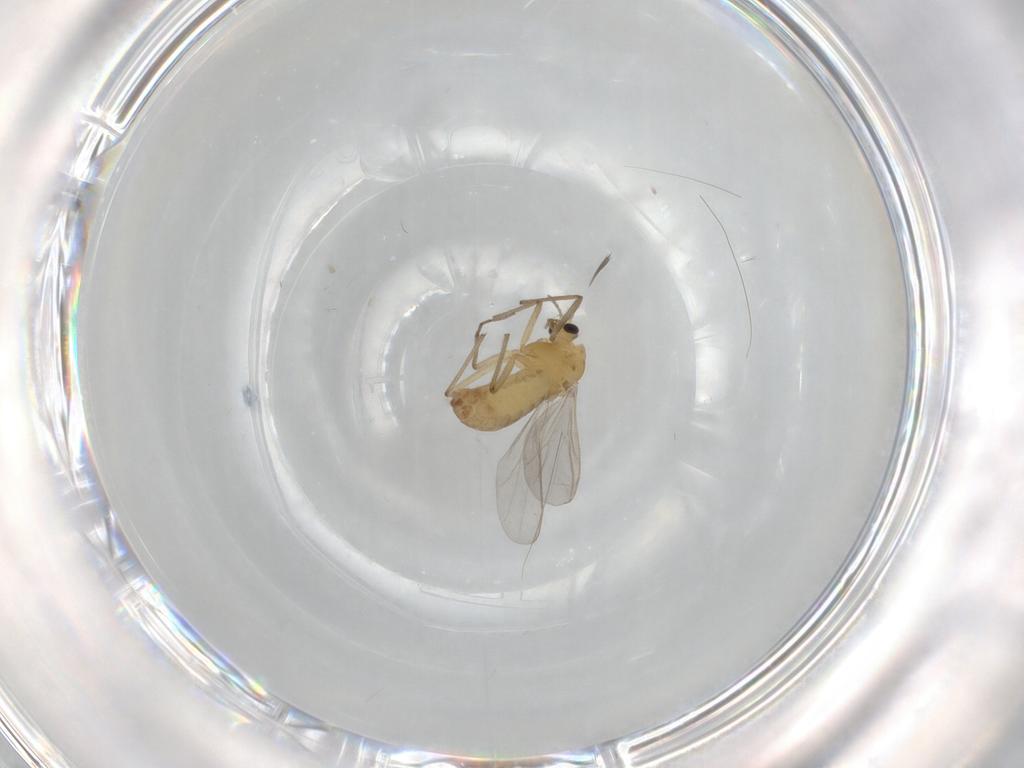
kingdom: Animalia
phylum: Arthropoda
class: Insecta
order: Diptera
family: Chironomidae
